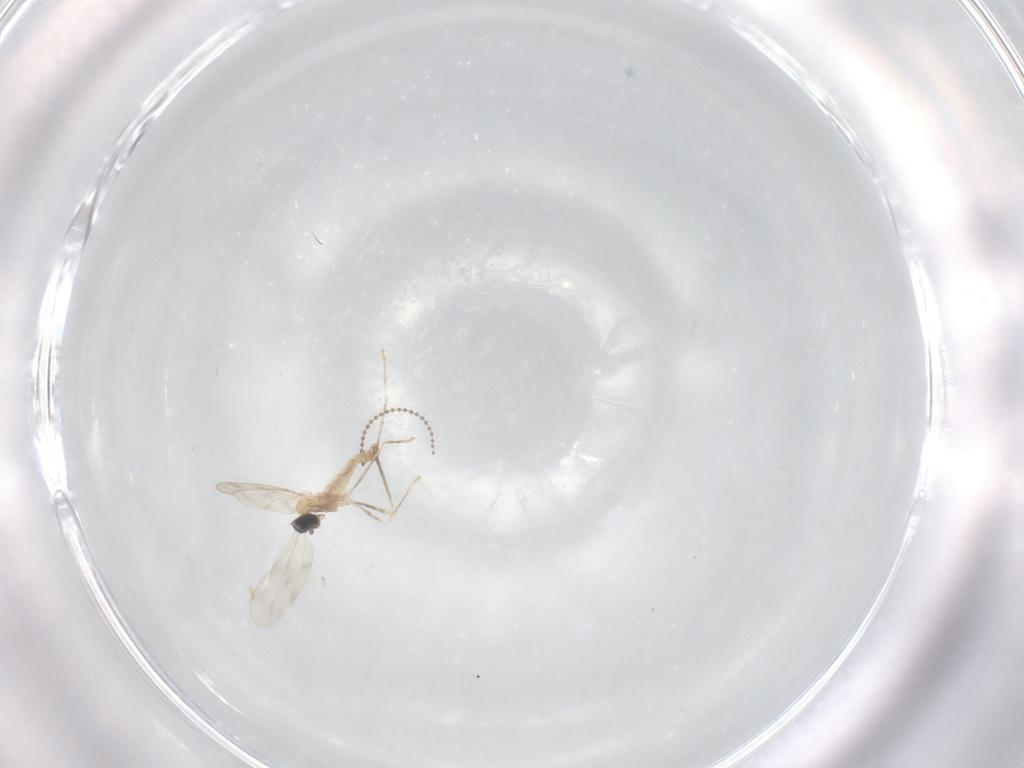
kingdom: Animalia
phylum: Arthropoda
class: Insecta
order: Diptera
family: Cecidomyiidae
